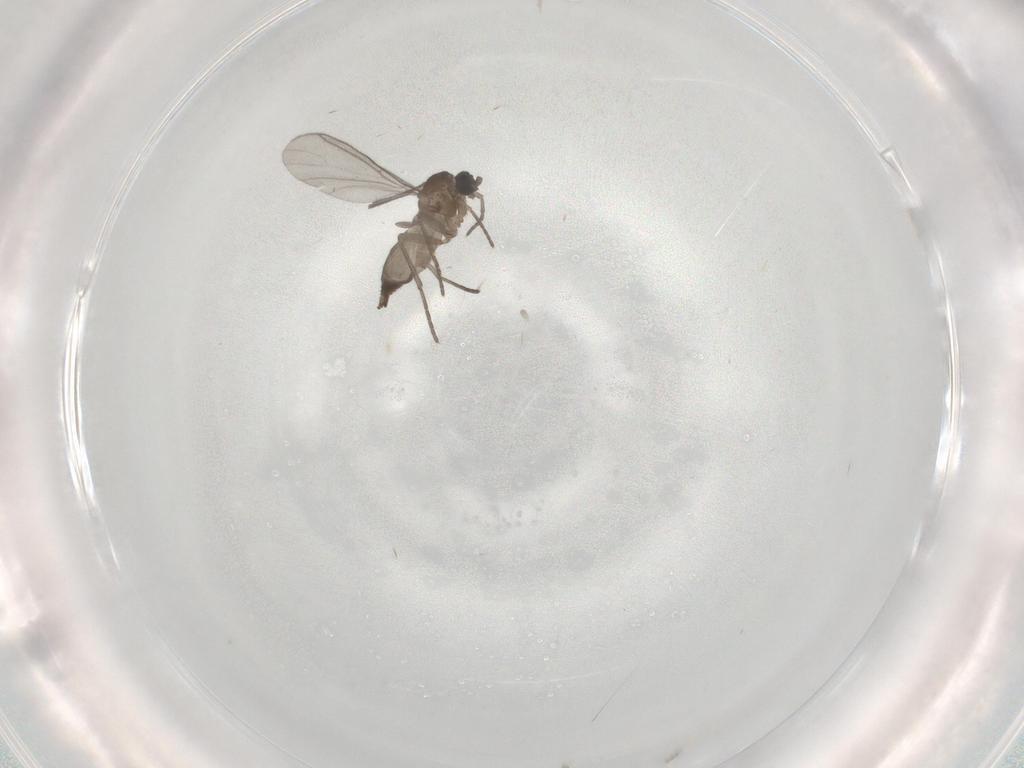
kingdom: Animalia
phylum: Arthropoda
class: Insecta
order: Diptera
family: Sciaridae
